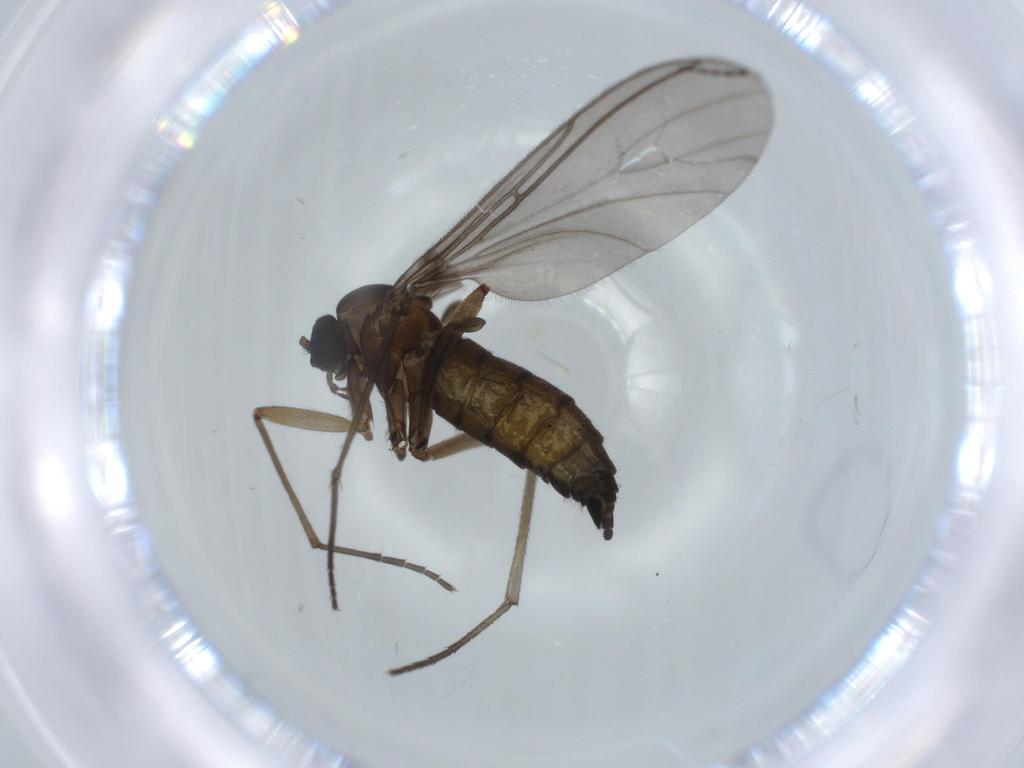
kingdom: Animalia
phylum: Arthropoda
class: Insecta
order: Diptera
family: Sciaridae
